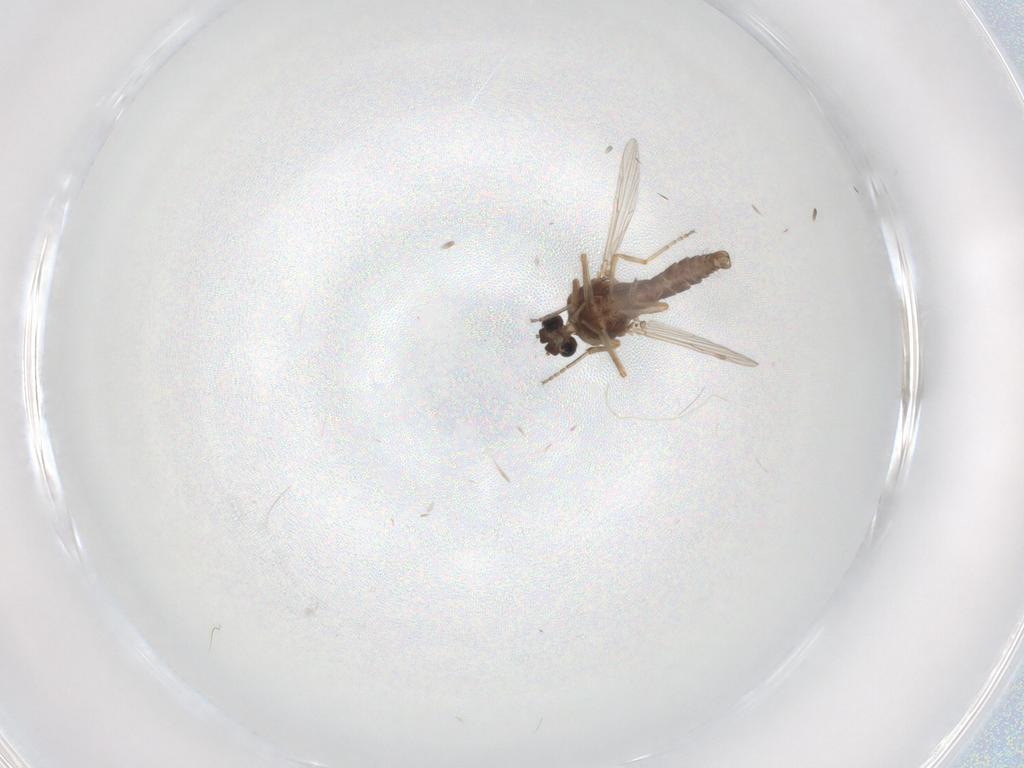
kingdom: Animalia
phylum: Arthropoda
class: Insecta
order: Diptera
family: Ceratopogonidae
